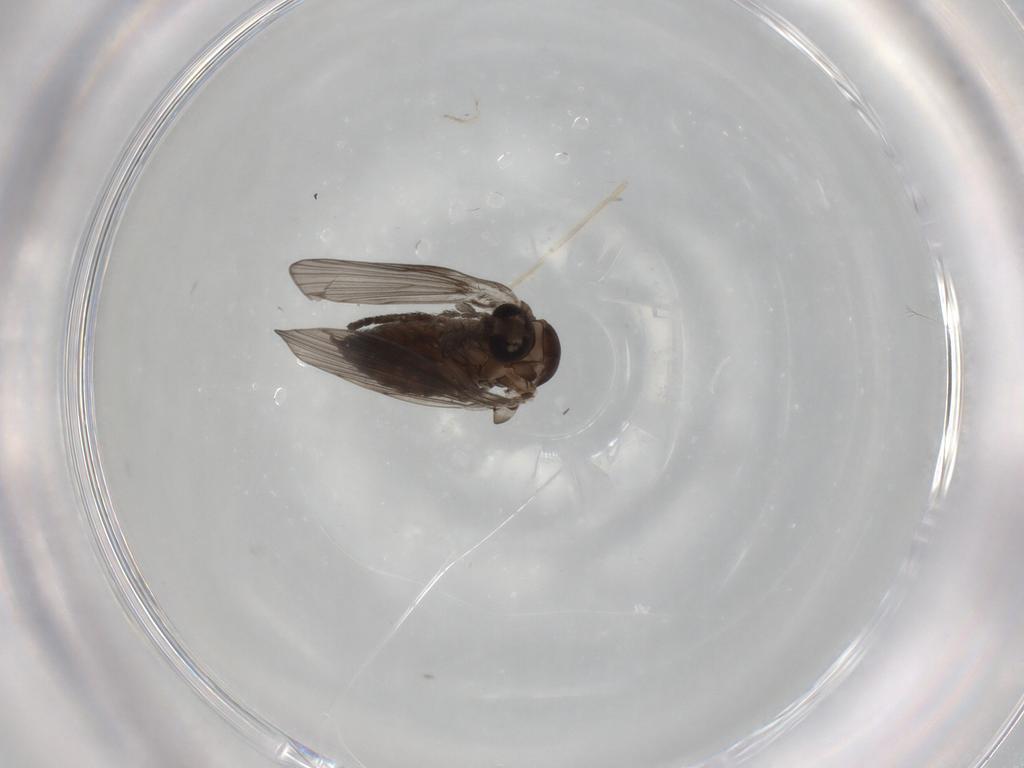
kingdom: Animalia
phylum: Arthropoda
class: Insecta
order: Diptera
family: Psychodidae
